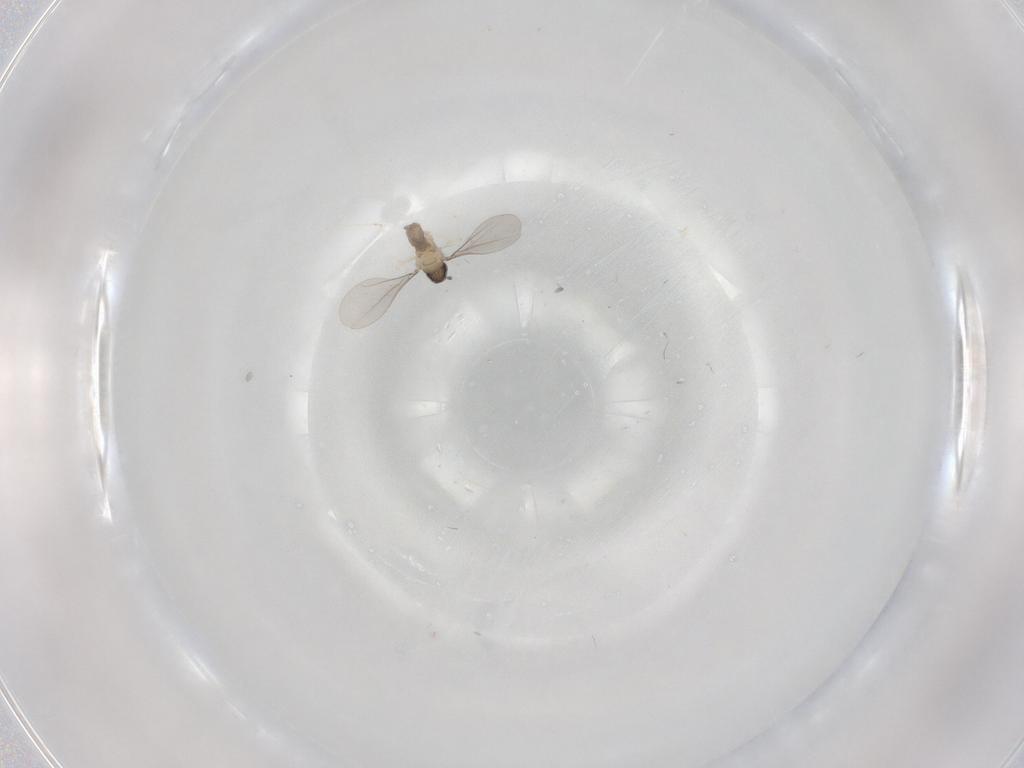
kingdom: Animalia
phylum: Arthropoda
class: Insecta
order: Diptera
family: Cecidomyiidae
